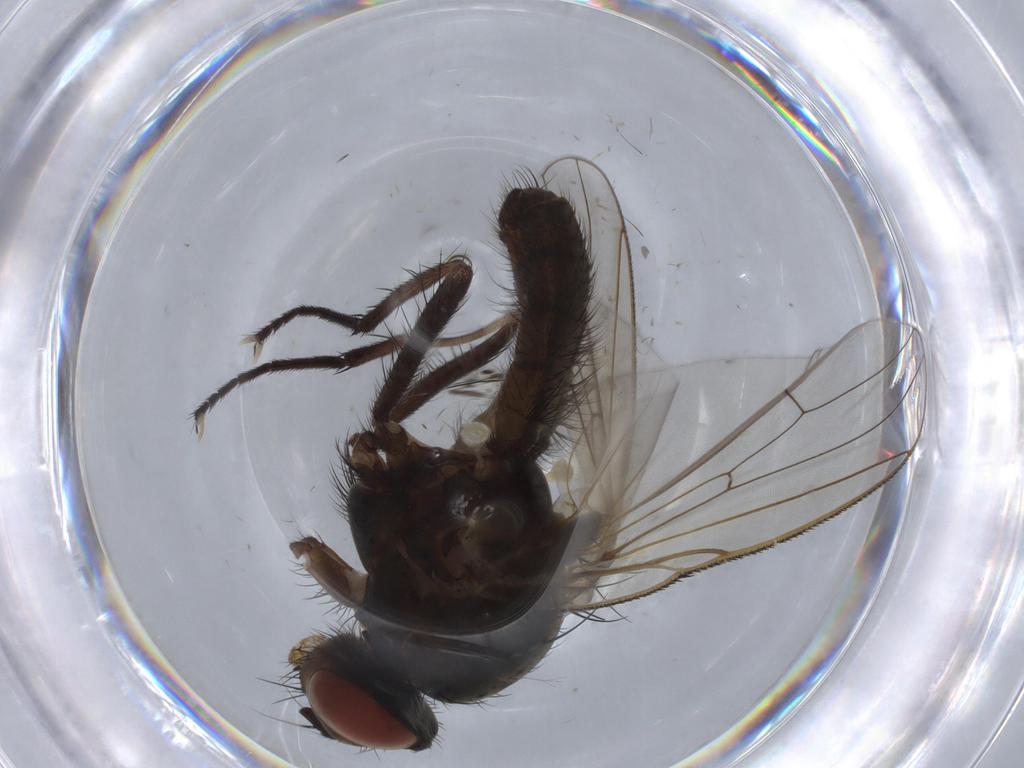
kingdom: Animalia
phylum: Arthropoda
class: Insecta
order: Diptera
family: Anthomyiidae
